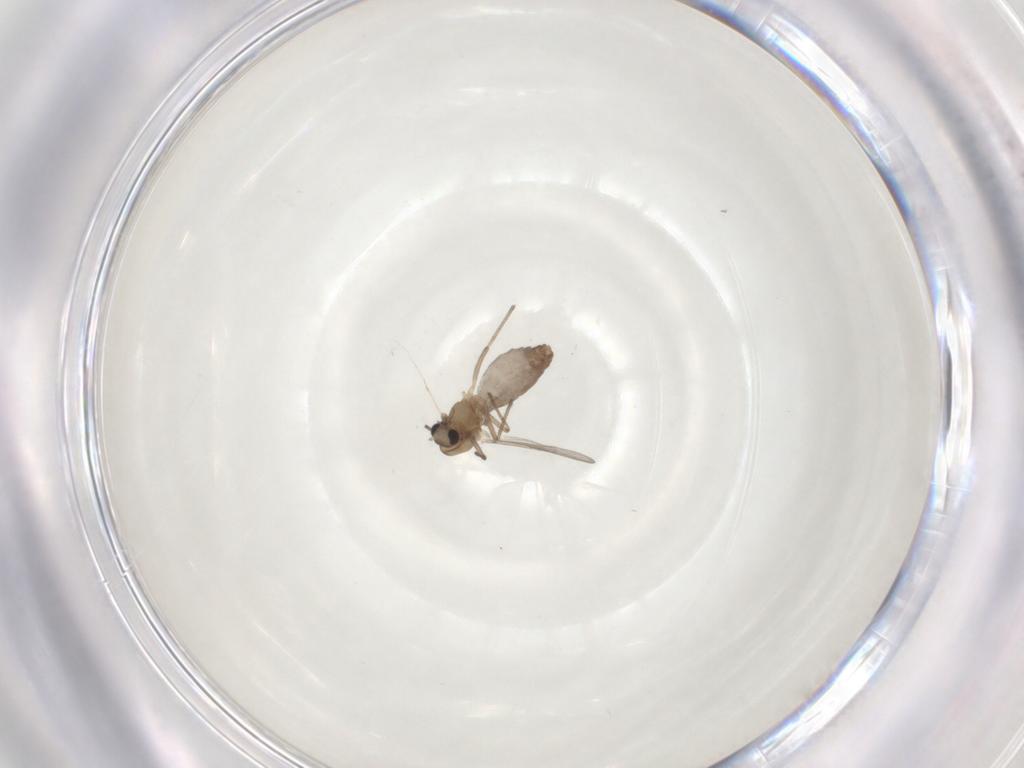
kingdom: Animalia
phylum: Arthropoda
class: Insecta
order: Diptera
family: Chironomidae
